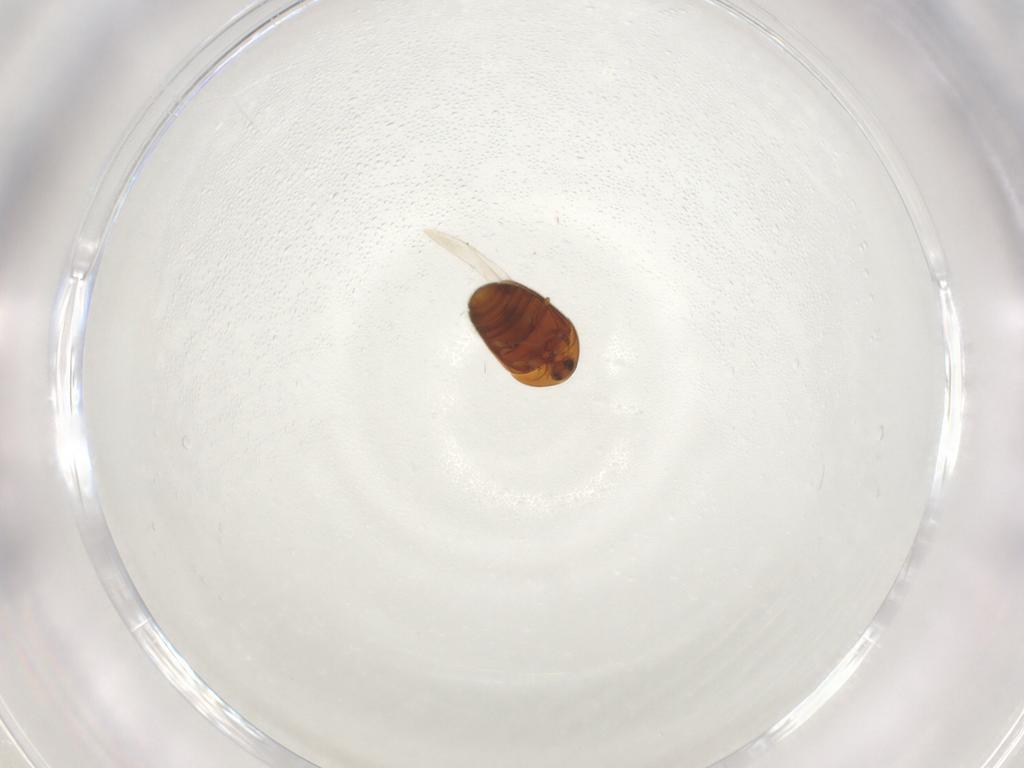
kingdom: Animalia
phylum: Arthropoda
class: Insecta
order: Coleoptera
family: Corylophidae
